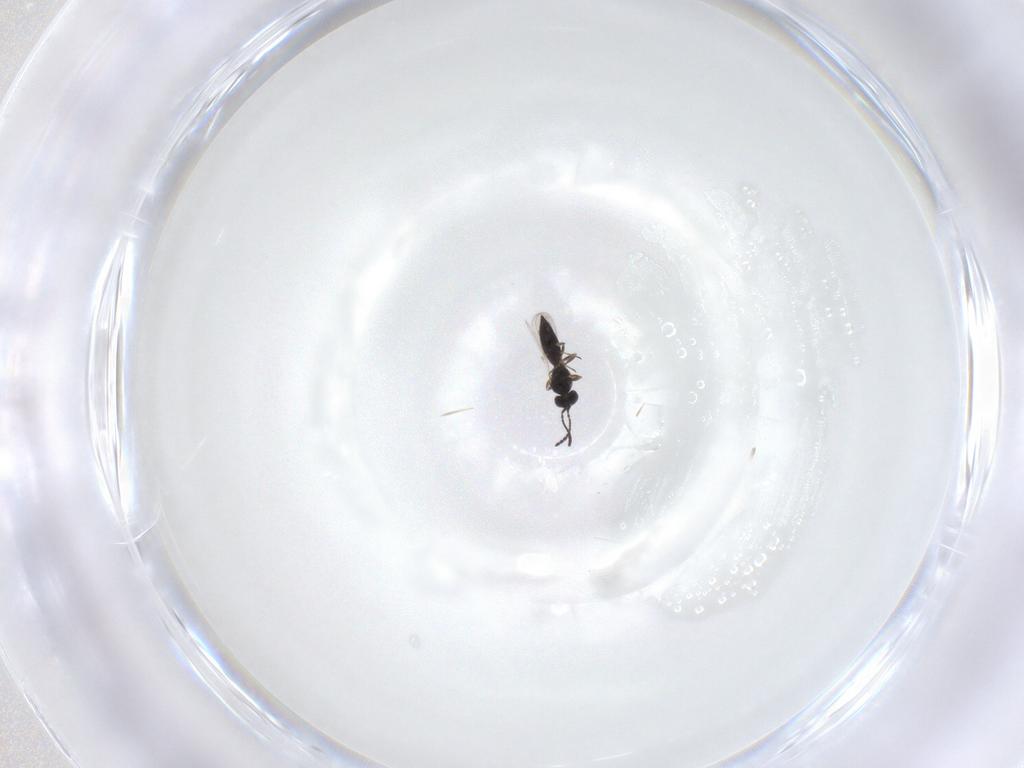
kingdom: Animalia
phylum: Arthropoda
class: Insecta
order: Hymenoptera
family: Scelionidae
